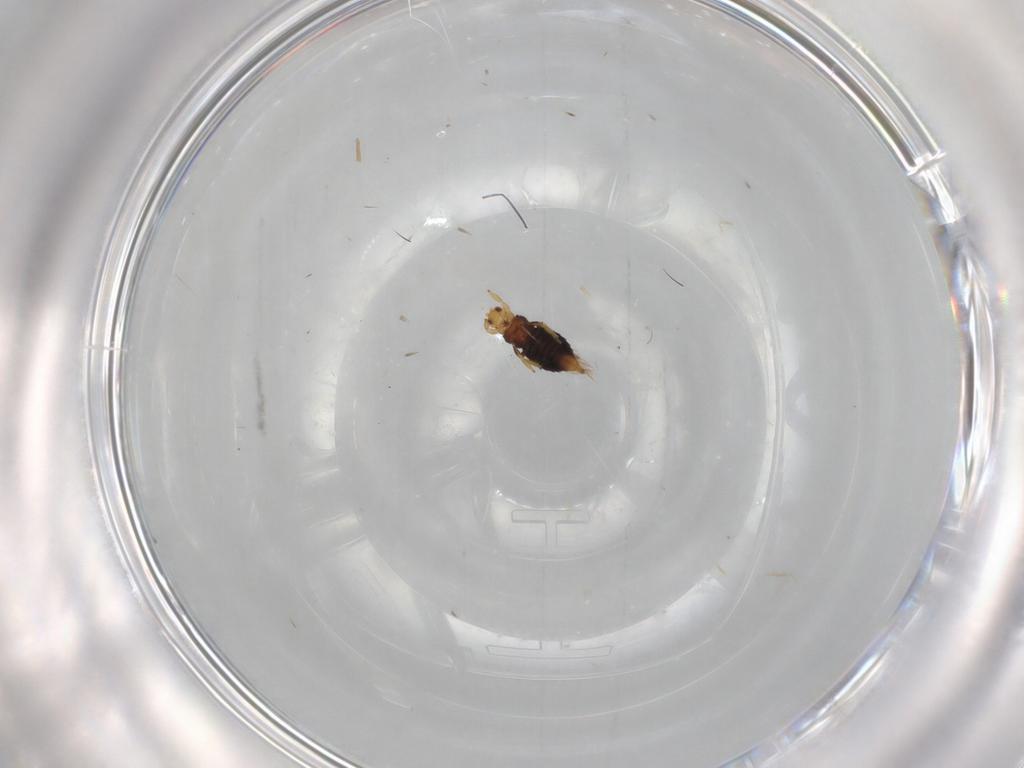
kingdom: Animalia
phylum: Arthropoda
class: Insecta
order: Thysanoptera
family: Thripidae
